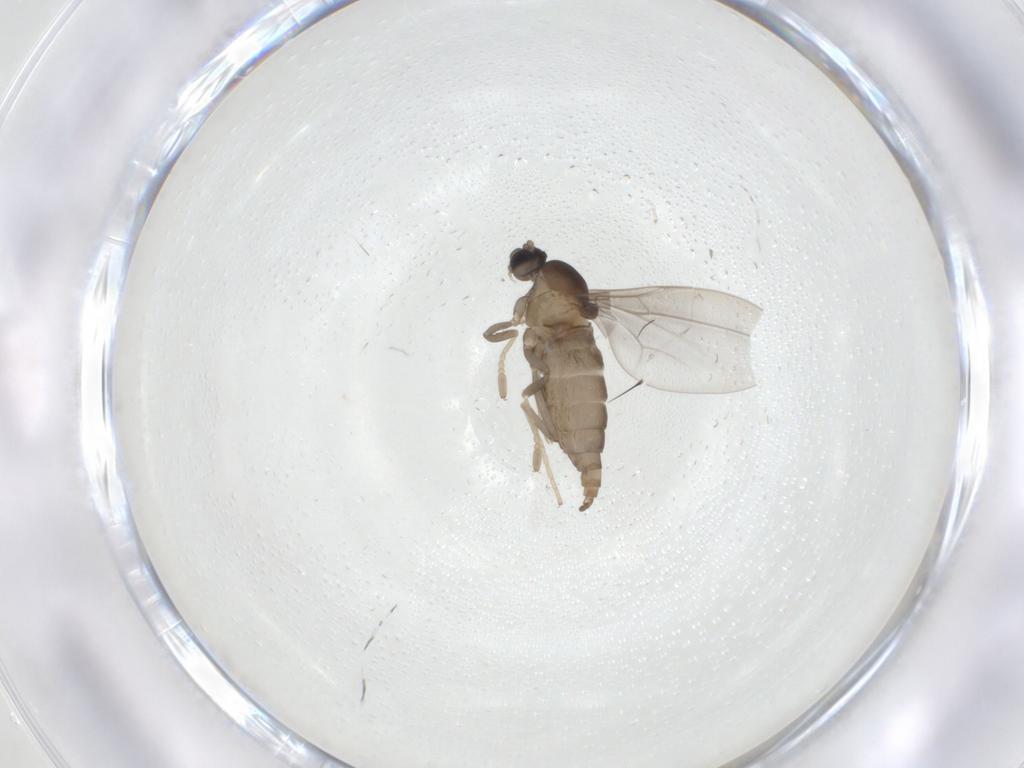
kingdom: Animalia
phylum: Arthropoda
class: Insecta
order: Diptera
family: Cecidomyiidae
